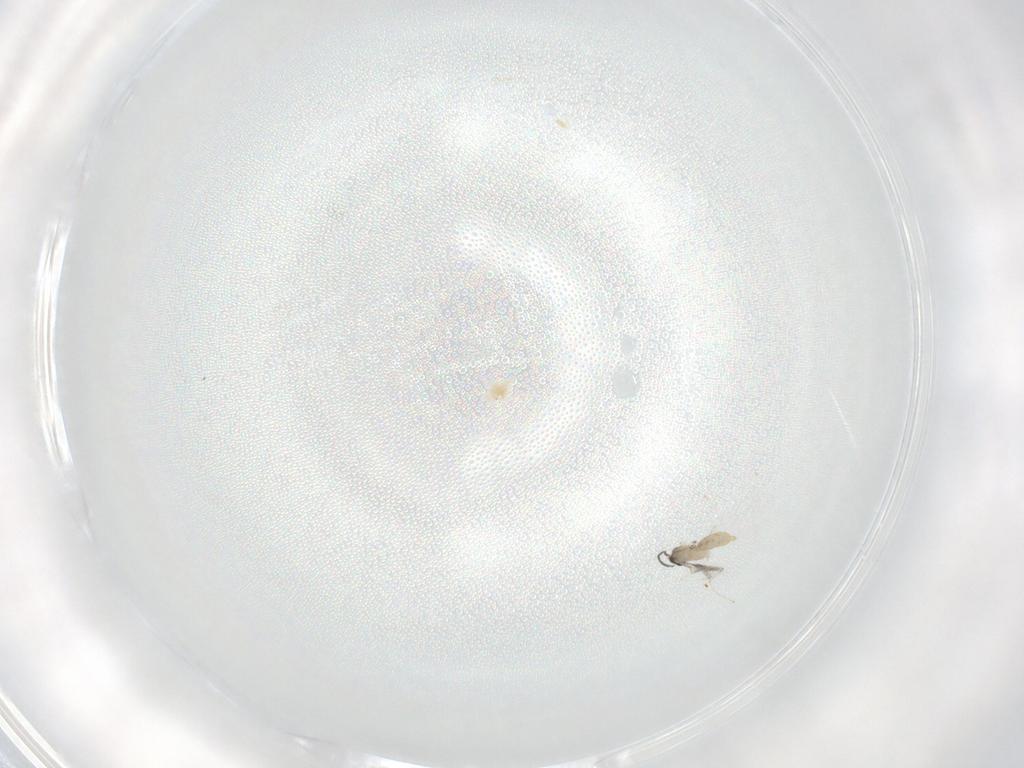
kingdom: Animalia
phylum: Arthropoda
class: Insecta
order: Diptera
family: Cecidomyiidae
